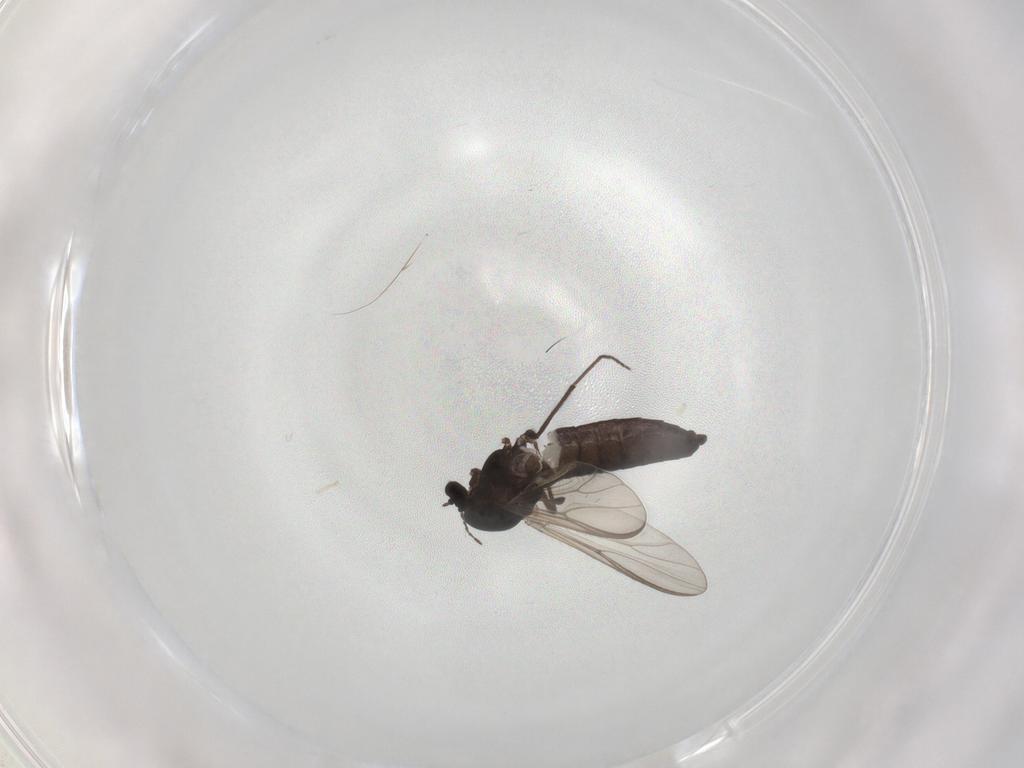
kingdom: Animalia
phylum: Arthropoda
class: Insecta
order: Diptera
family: Chironomidae
